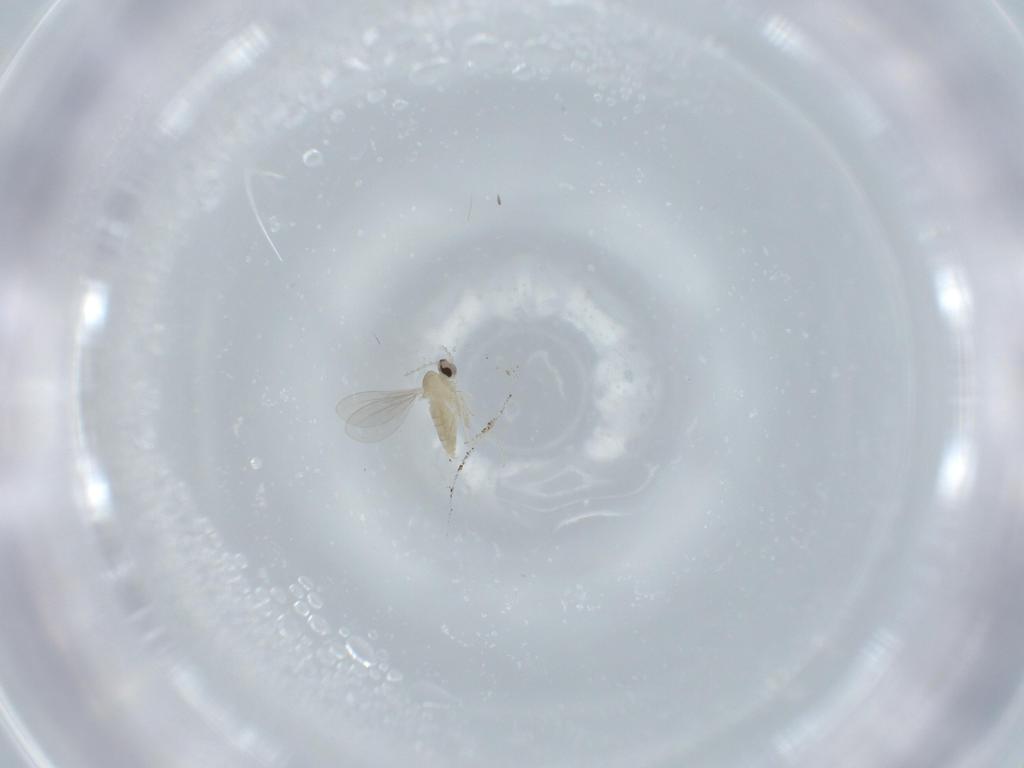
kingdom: Animalia
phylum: Arthropoda
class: Insecta
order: Diptera
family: Cecidomyiidae
